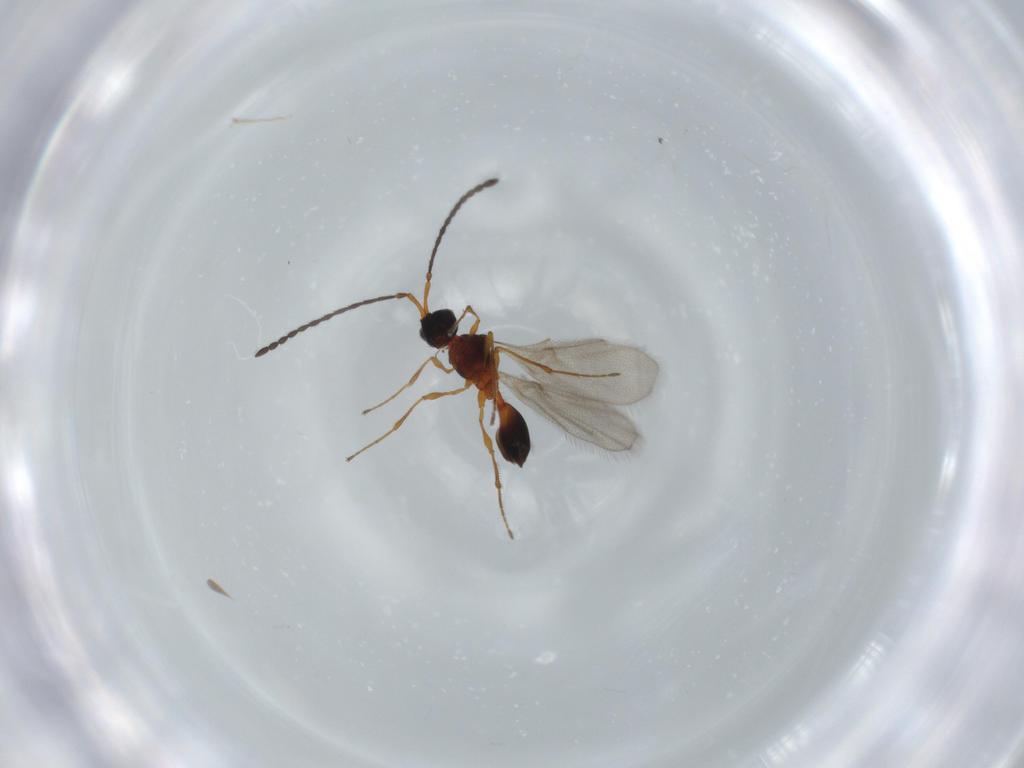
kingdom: Animalia
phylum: Arthropoda
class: Insecta
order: Hymenoptera
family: Diapriidae
